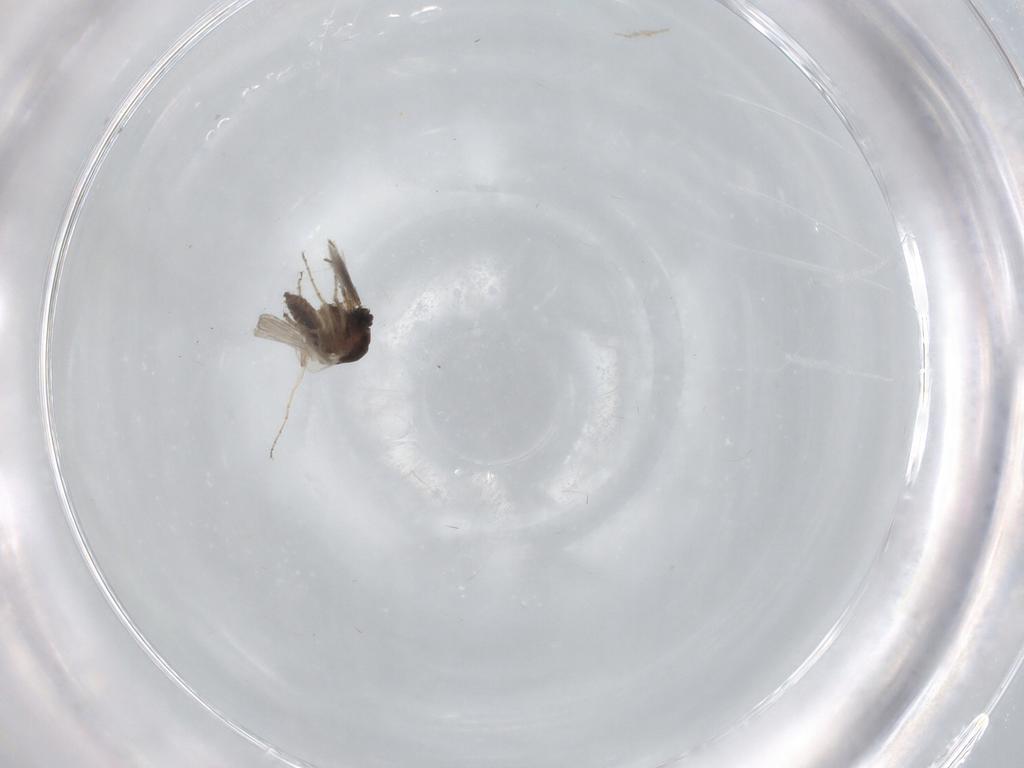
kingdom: Animalia
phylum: Arthropoda
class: Insecta
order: Diptera
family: Ceratopogonidae
